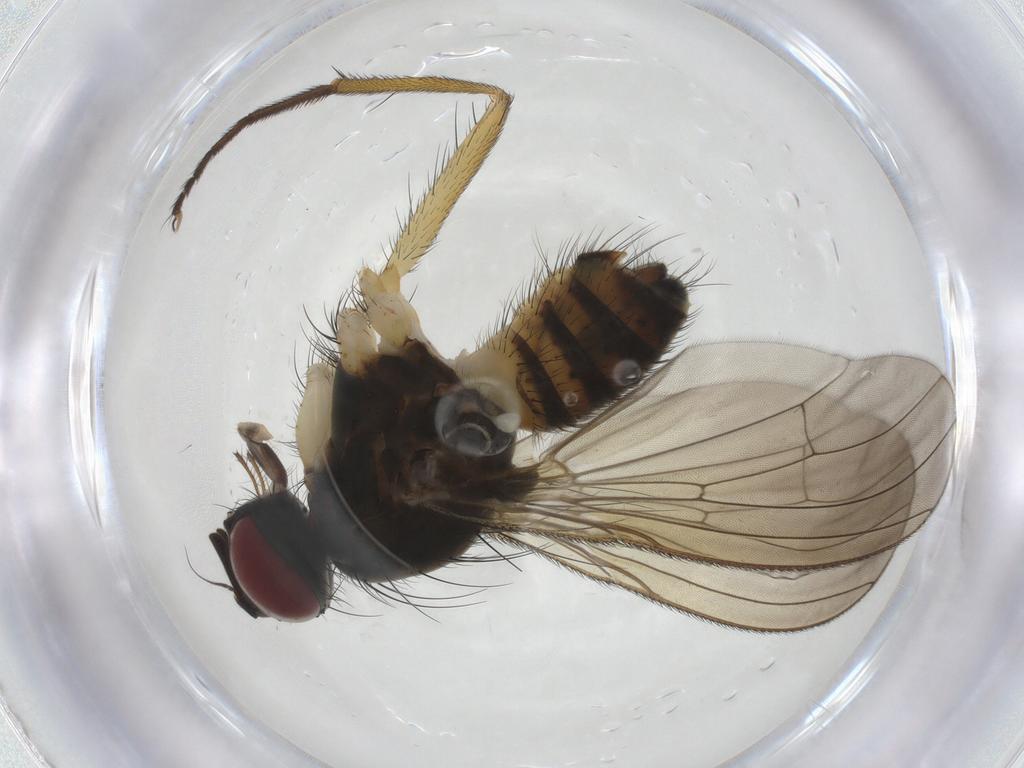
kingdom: Animalia
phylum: Arthropoda
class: Insecta
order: Diptera
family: Muscidae
